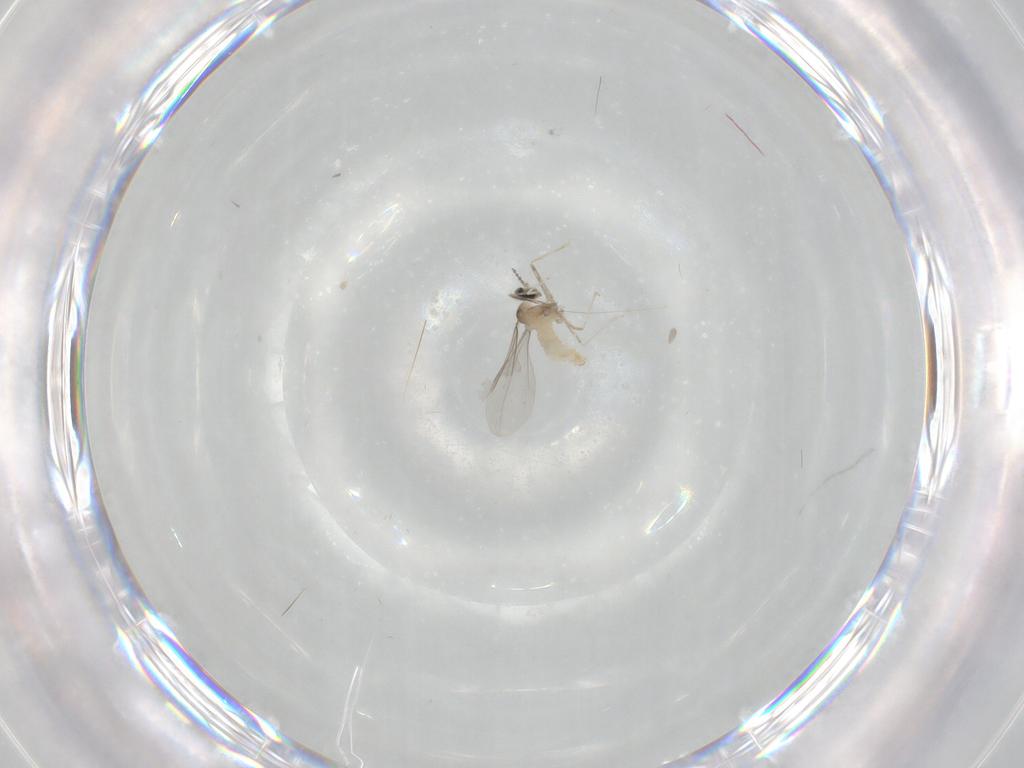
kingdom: Animalia
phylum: Arthropoda
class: Insecta
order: Diptera
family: Cecidomyiidae
